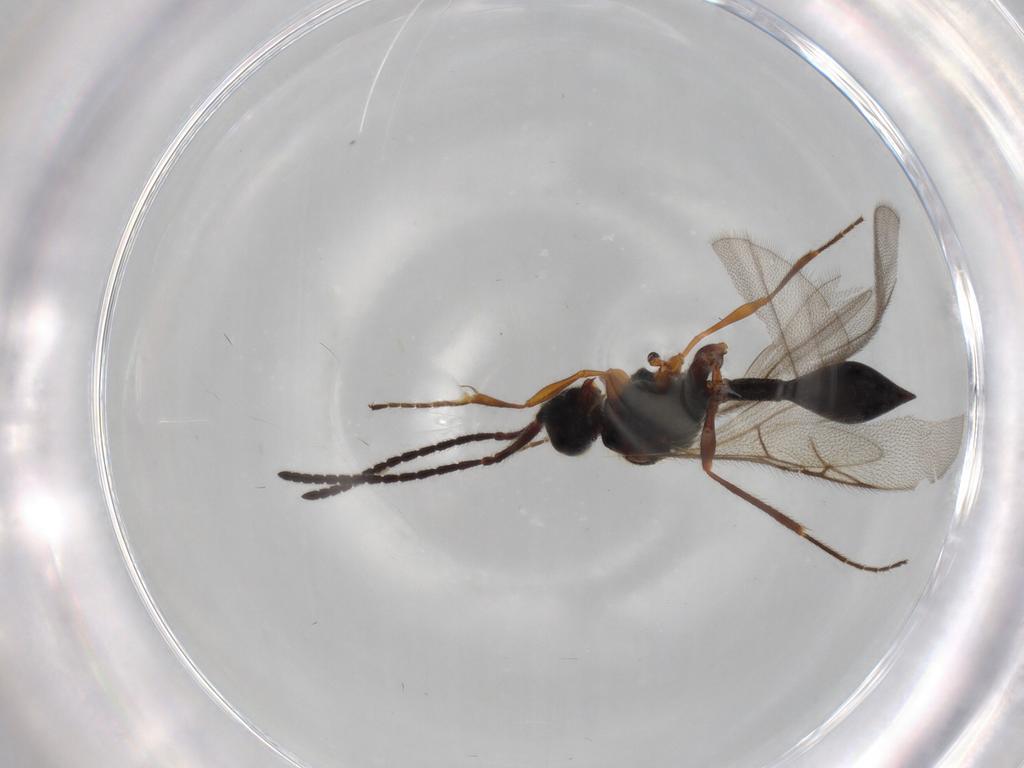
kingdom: Animalia
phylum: Arthropoda
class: Insecta
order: Hymenoptera
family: Diapriidae
